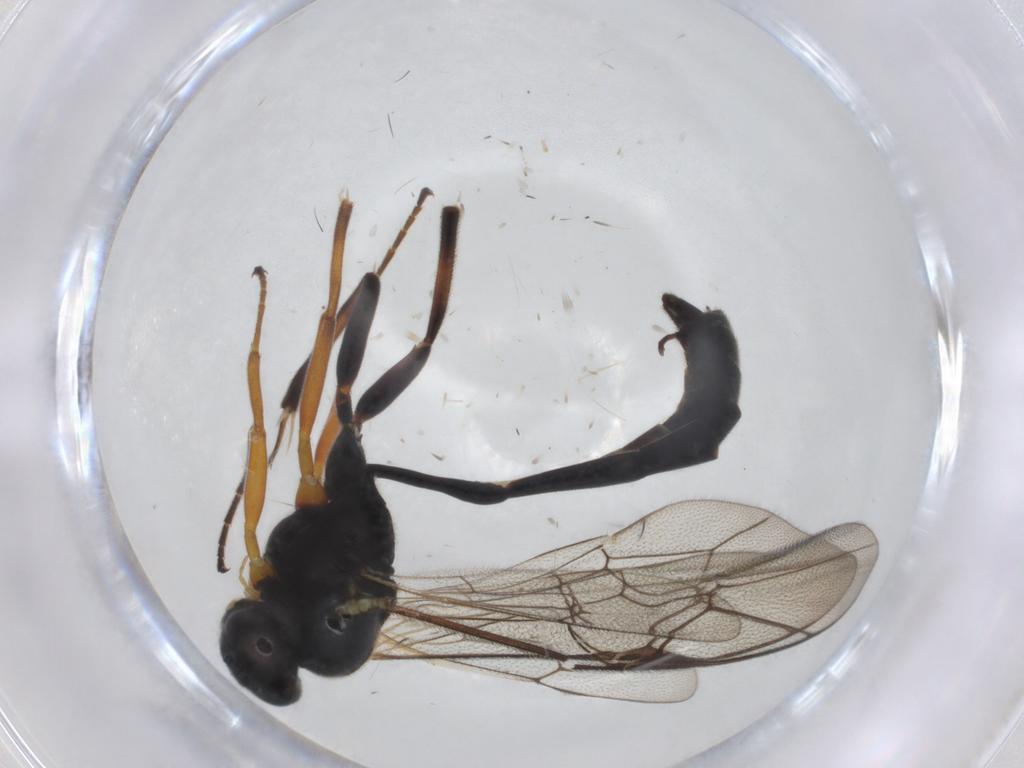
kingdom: Animalia
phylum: Arthropoda
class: Insecta
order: Hymenoptera
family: Ichneumonidae
